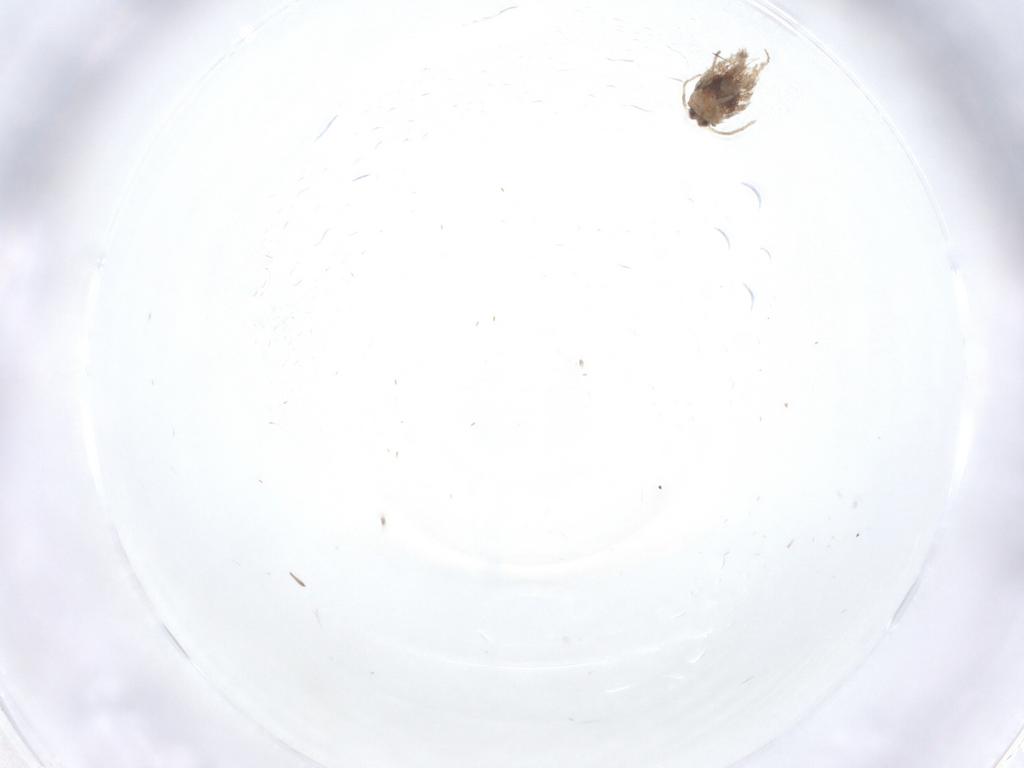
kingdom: Animalia
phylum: Arthropoda
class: Insecta
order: Lepidoptera
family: Nepticulidae
